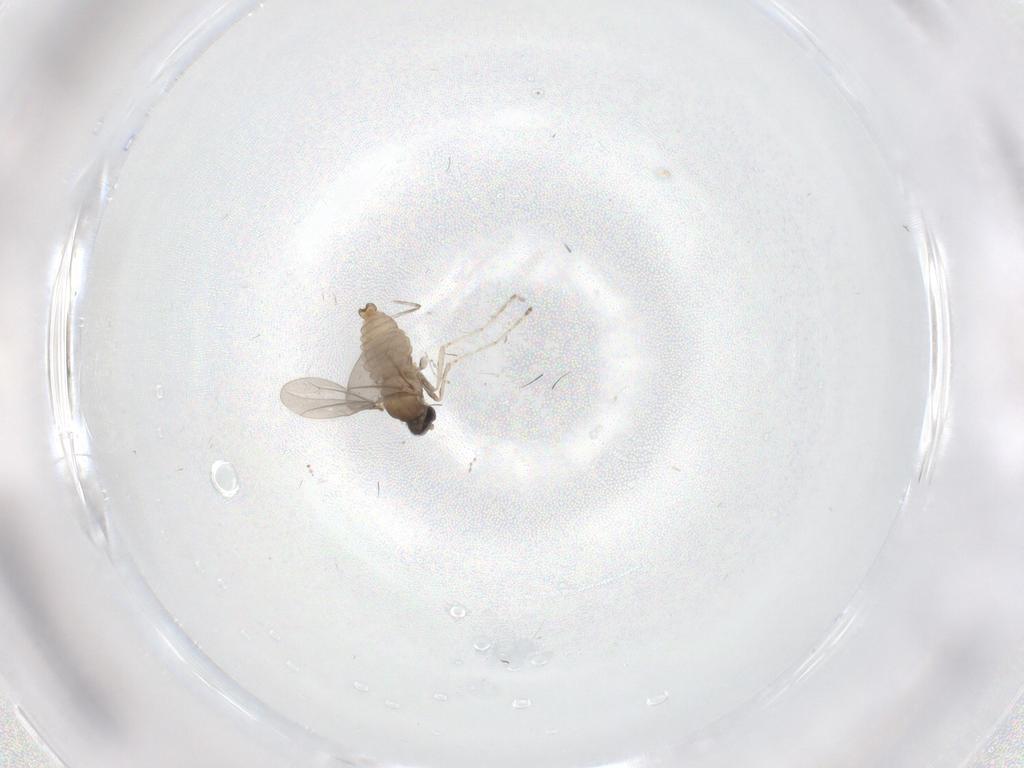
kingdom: Animalia
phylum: Arthropoda
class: Insecta
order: Diptera
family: Cecidomyiidae
